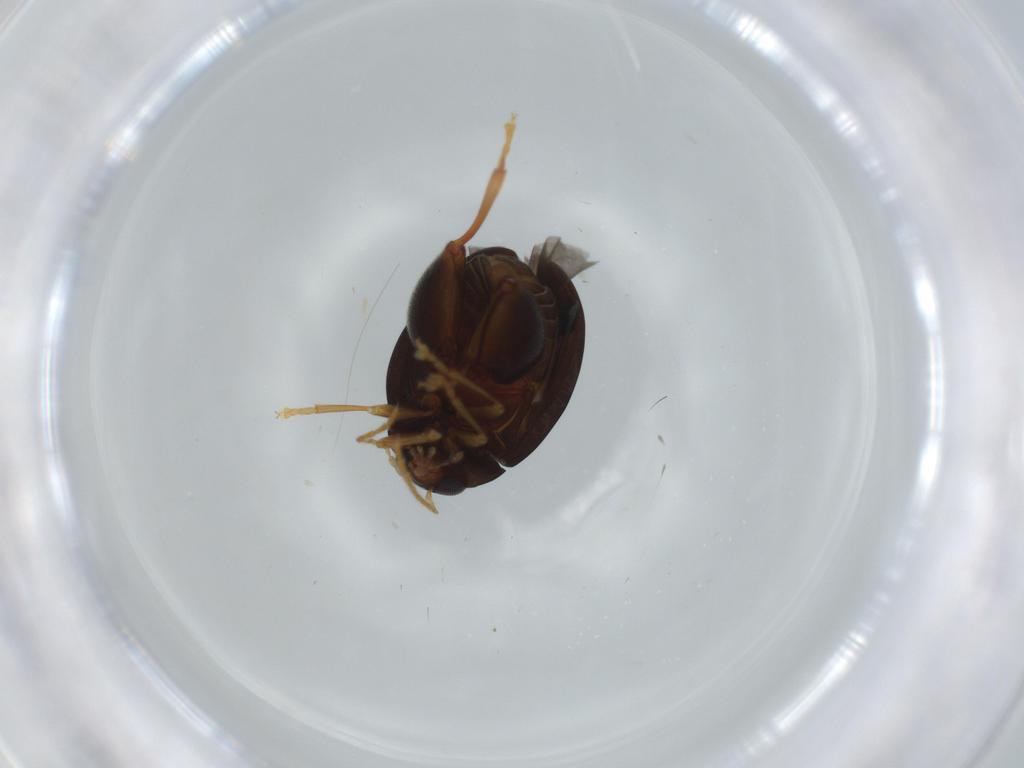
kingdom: Animalia
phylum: Arthropoda
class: Insecta
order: Coleoptera
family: Chrysomelidae
